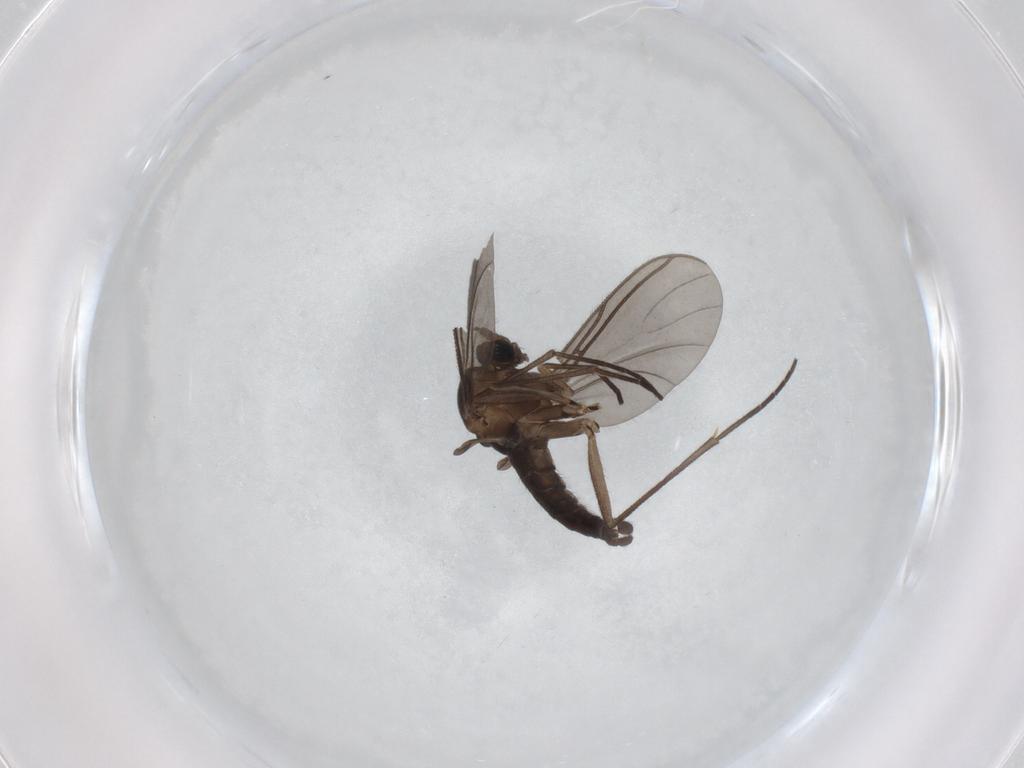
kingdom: Animalia
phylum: Arthropoda
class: Insecta
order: Diptera
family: Sciaridae
